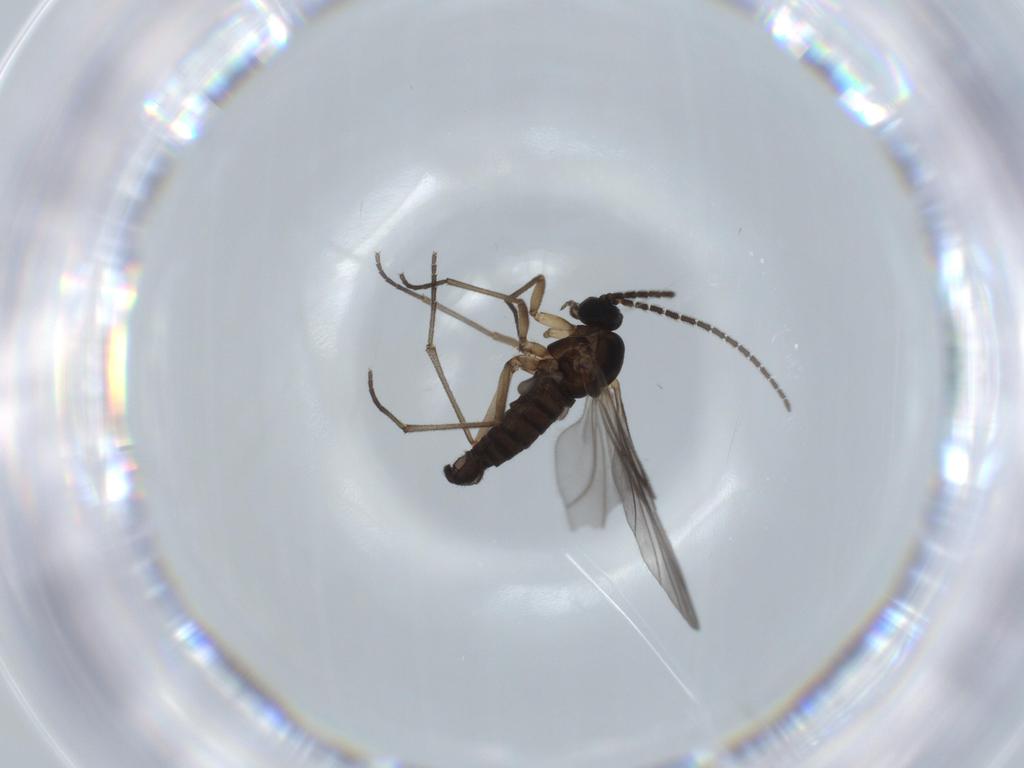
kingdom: Animalia
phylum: Arthropoda
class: Insecta
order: Diptera
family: Sciaridae
